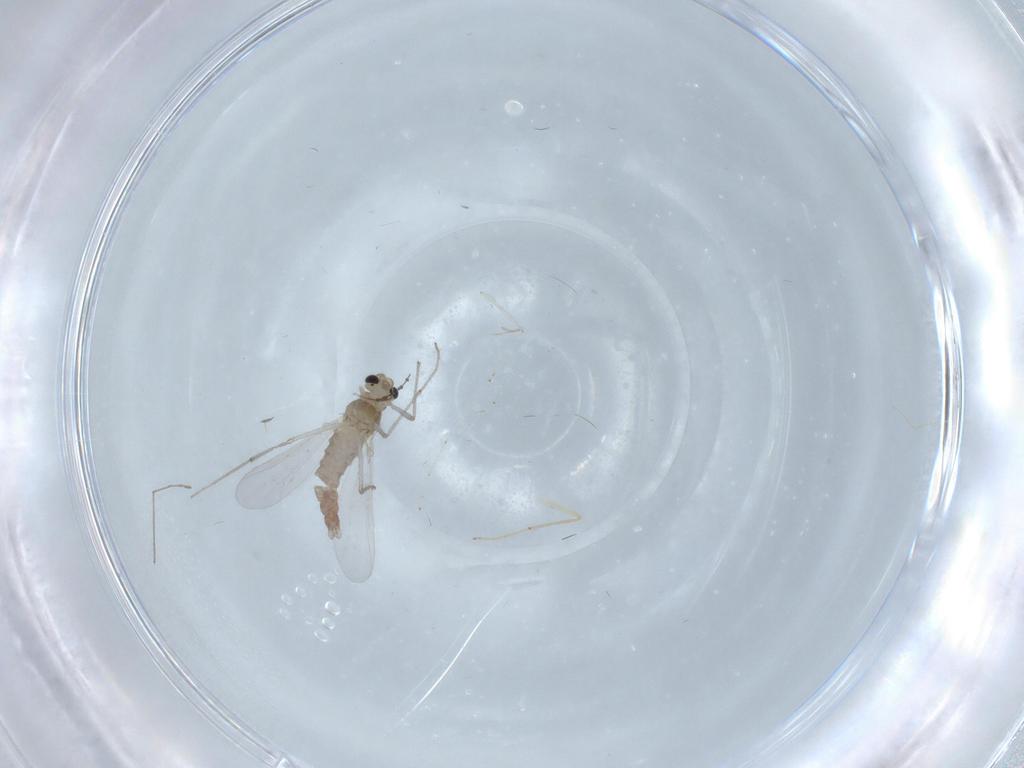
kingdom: Animalia
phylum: Arthropoda
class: Insecta
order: Diptera
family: Chironomidae
